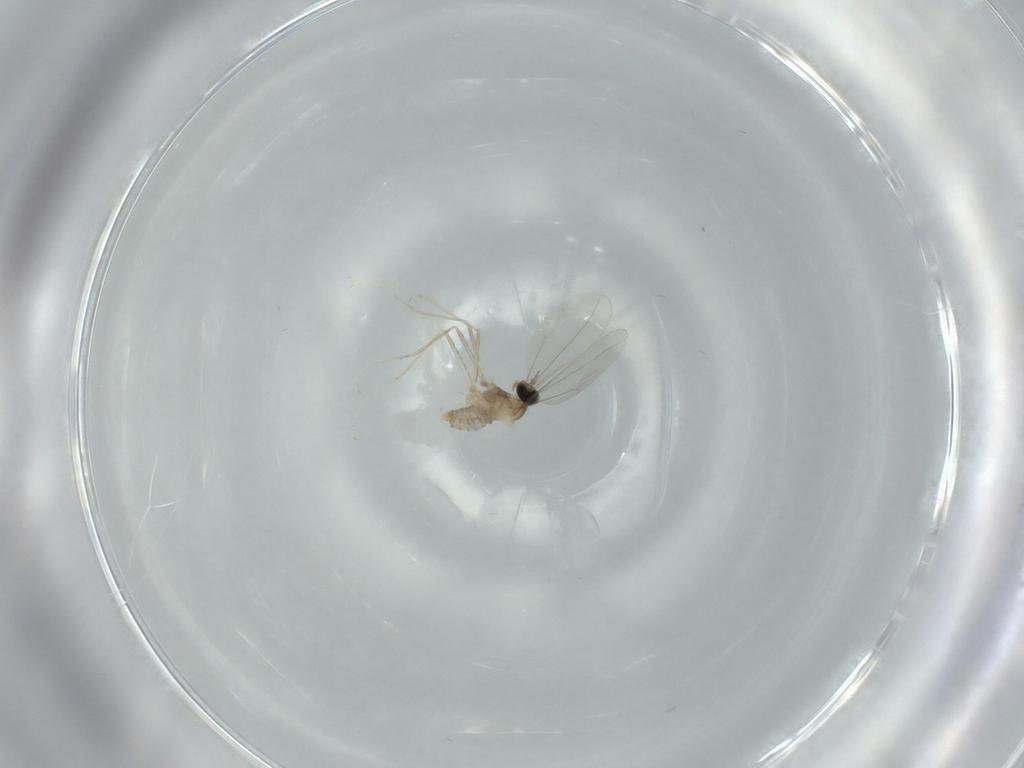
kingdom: Animalia
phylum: Arthropoda
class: Insecta
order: Diptera
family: Cecidomyiidae
